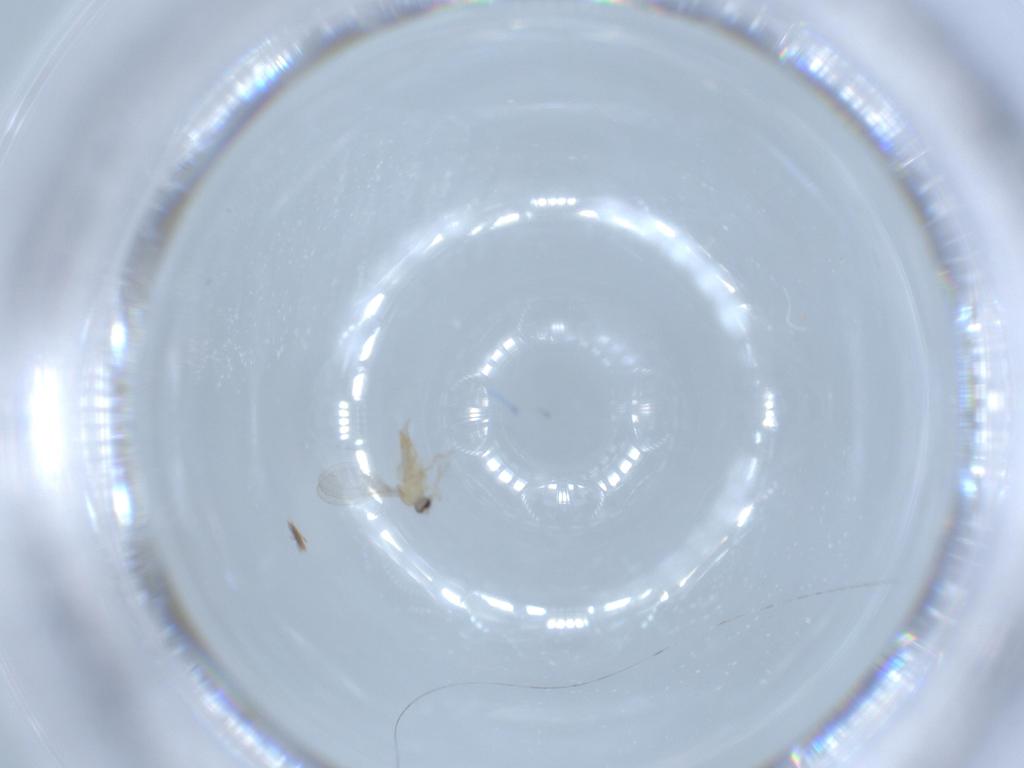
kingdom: Animalia
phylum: Arthropoda
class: Insecta
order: Diptera
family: Cecidomyiidae
